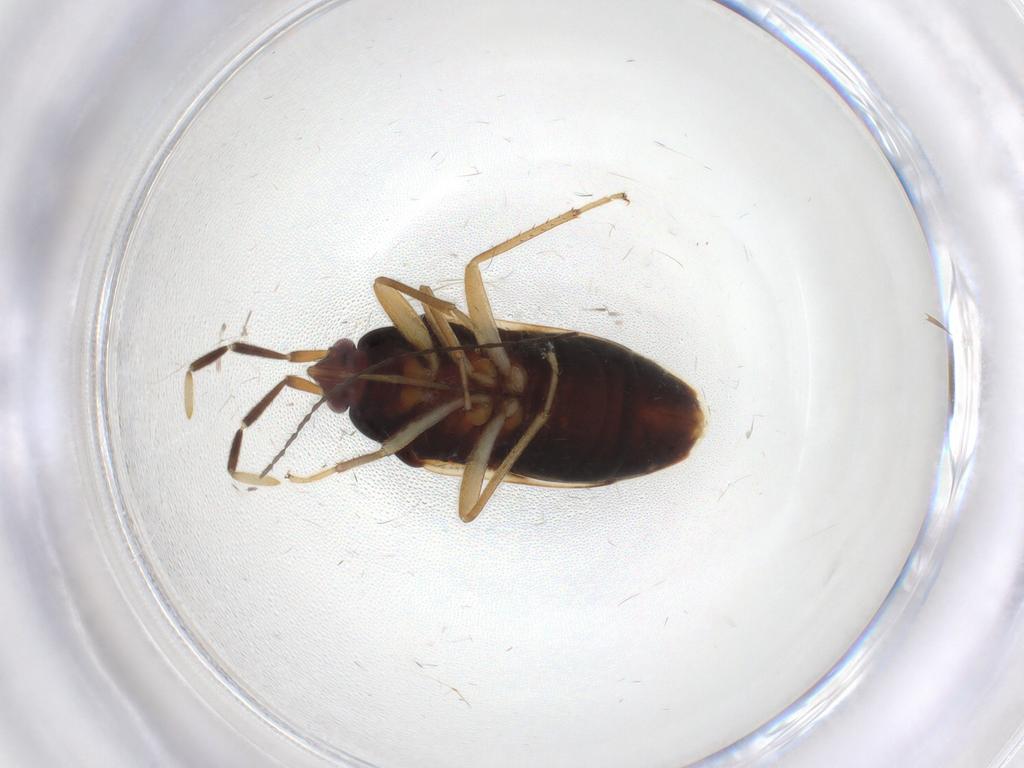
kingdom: Animalia
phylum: Arthropoda
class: Insecta
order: Hemiptera
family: Rhyparochromidae
